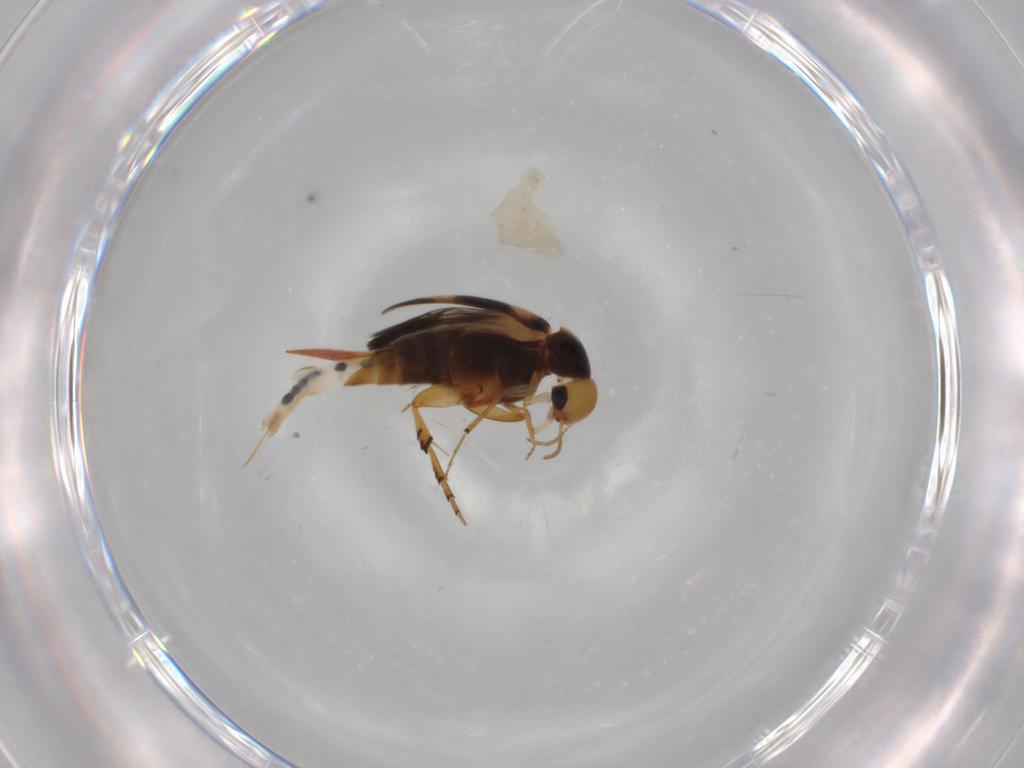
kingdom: Animalia
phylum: Arthropoda
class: Insecta
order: Coleoptera
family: Mordellidae
